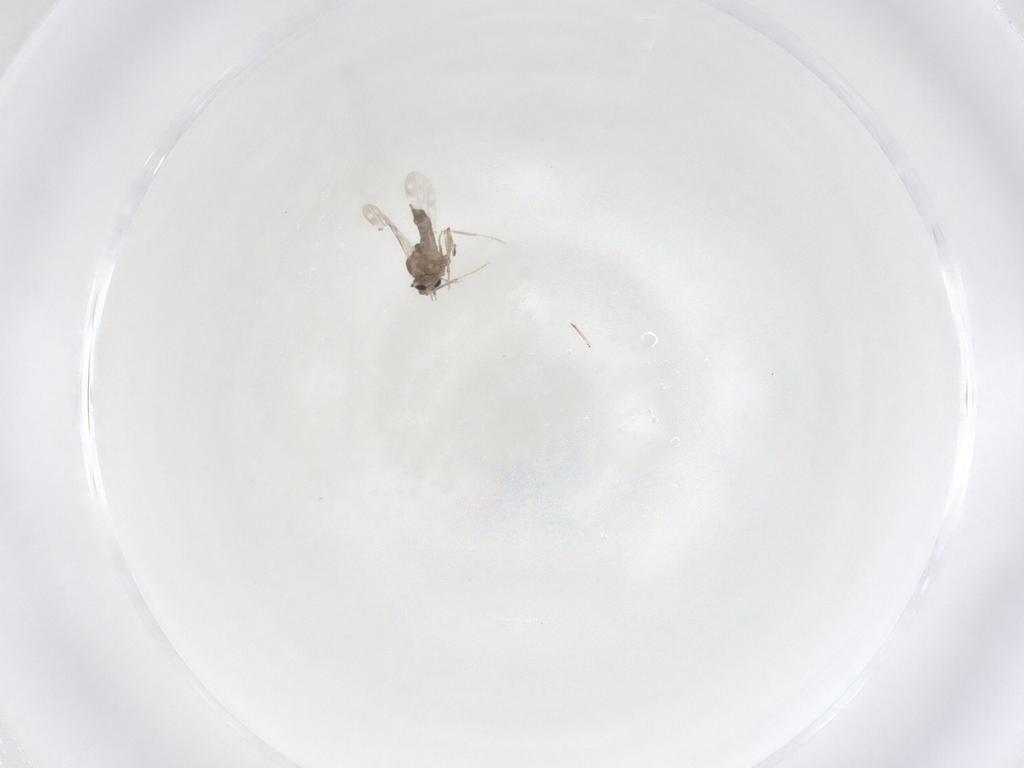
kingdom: Animalia
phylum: Arthropoda
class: Insecta
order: Diptera
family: Ceratopogonidae
